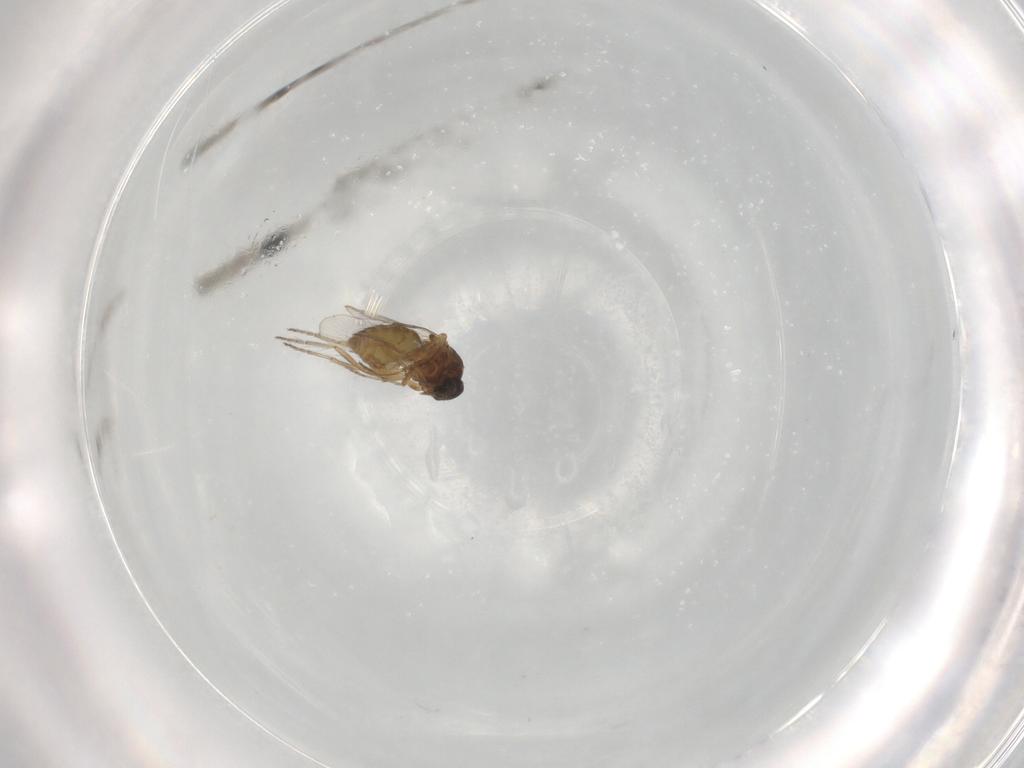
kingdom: Animalia
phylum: Arthropoda
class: Insecta
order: Diptera
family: Ceratopogonidae
